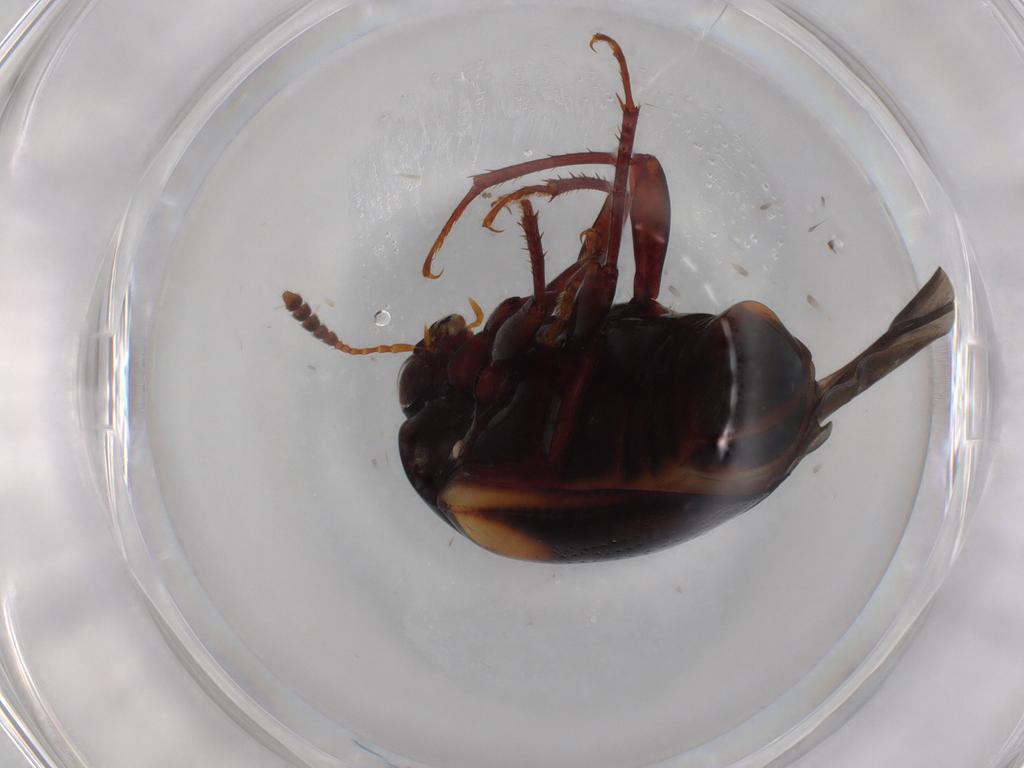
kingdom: Animalia
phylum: Arthropoda
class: Insecta
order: Coleoptera
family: Staphylinidae
